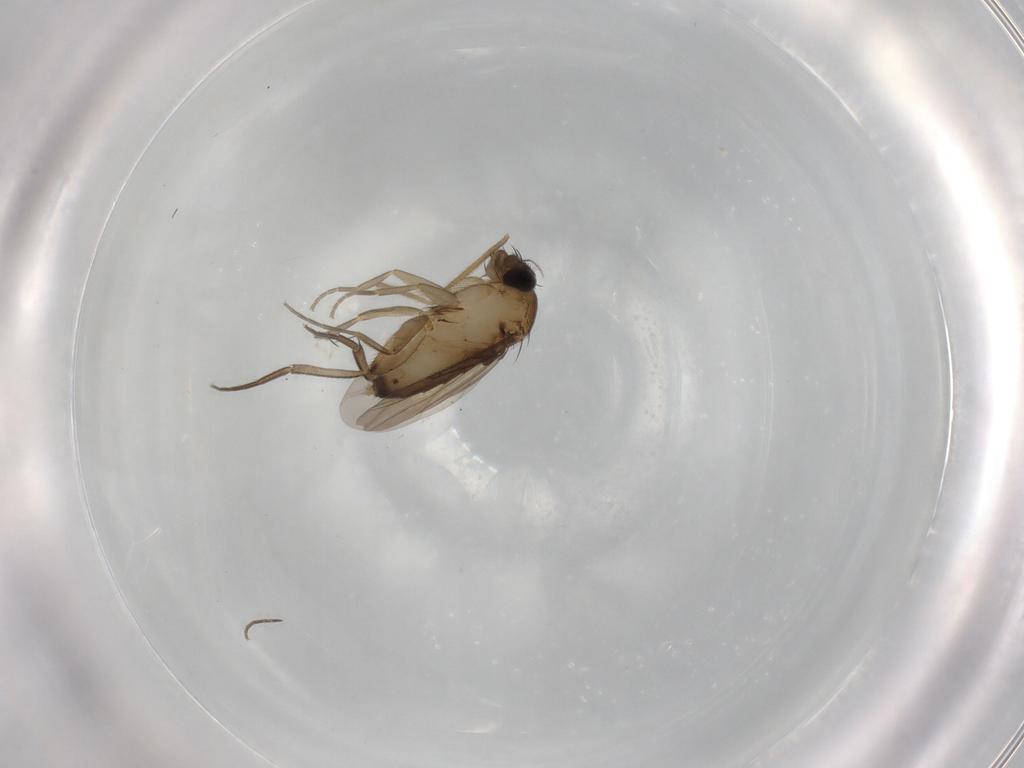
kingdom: Animalia
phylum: Arthropoda
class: Insecta
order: Diptera
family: Phoridae
